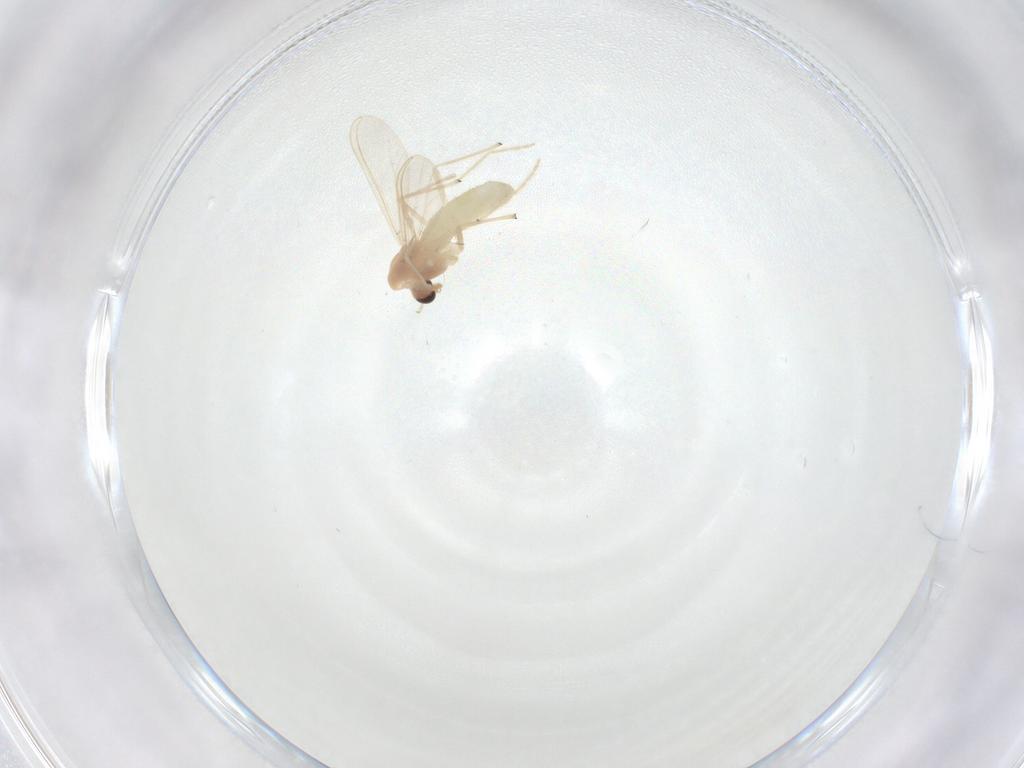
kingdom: Animalia
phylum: Arthropoda
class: Insecta
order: Diptera
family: Chironomidae
